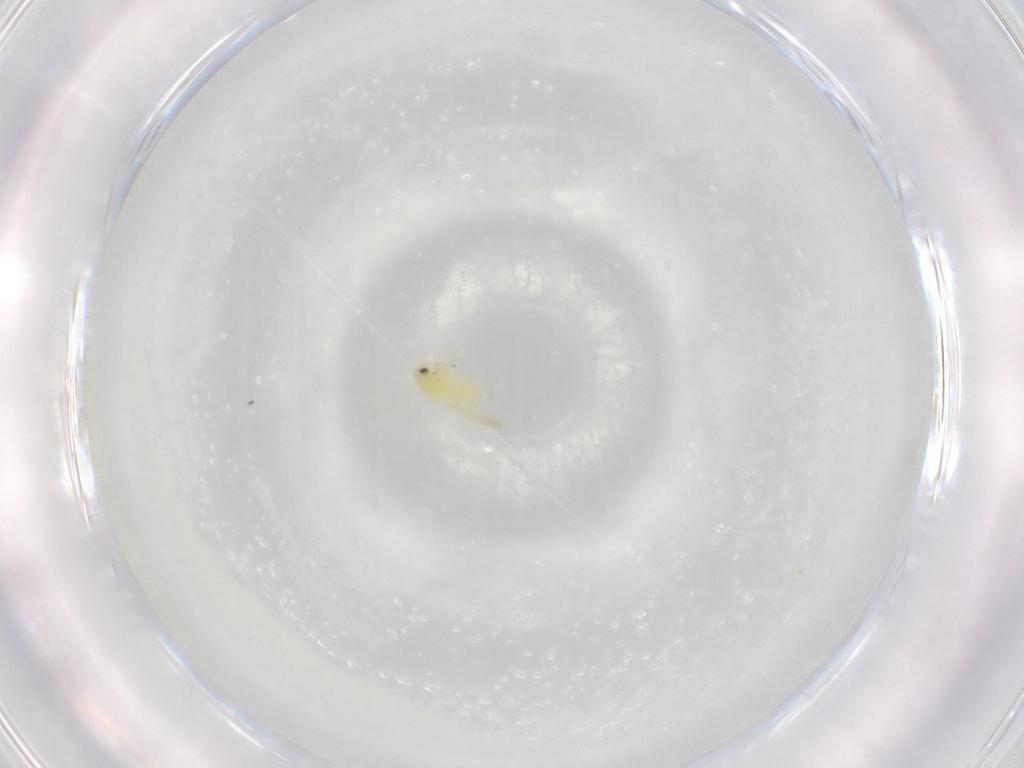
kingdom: Animalia
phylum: Arthropoda
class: Insecta
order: Hemiptera
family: Aleyrodidae
